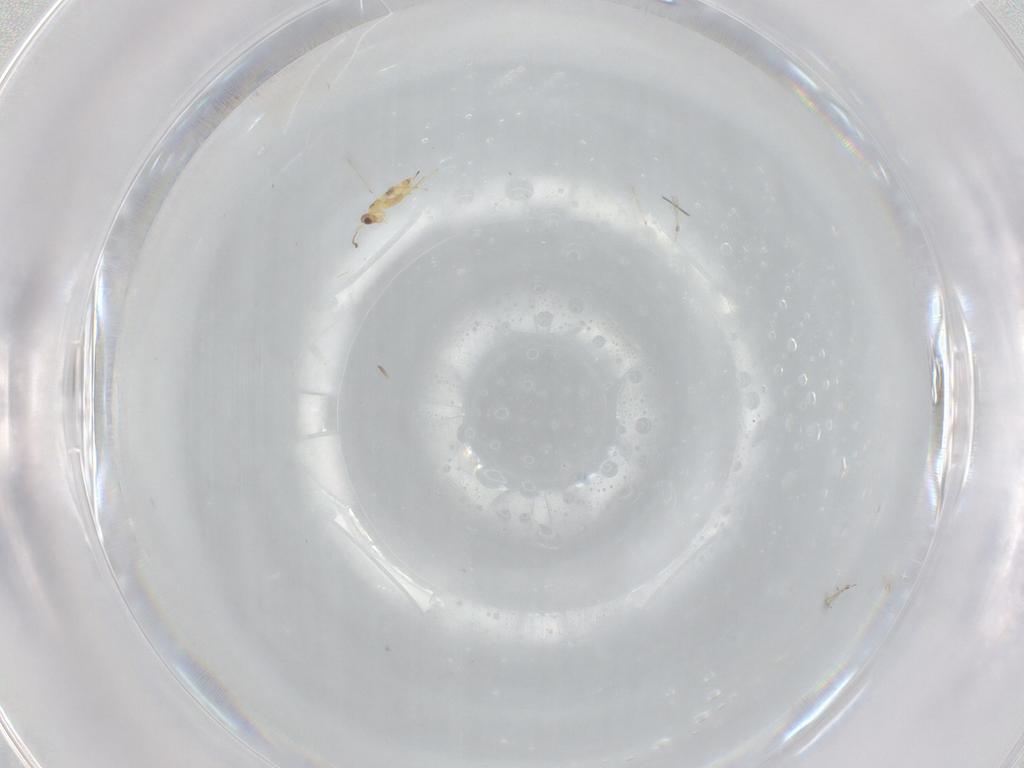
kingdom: Animalia
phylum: Arthropoda
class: Insecta
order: Hymenoptera
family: Mymaridae
